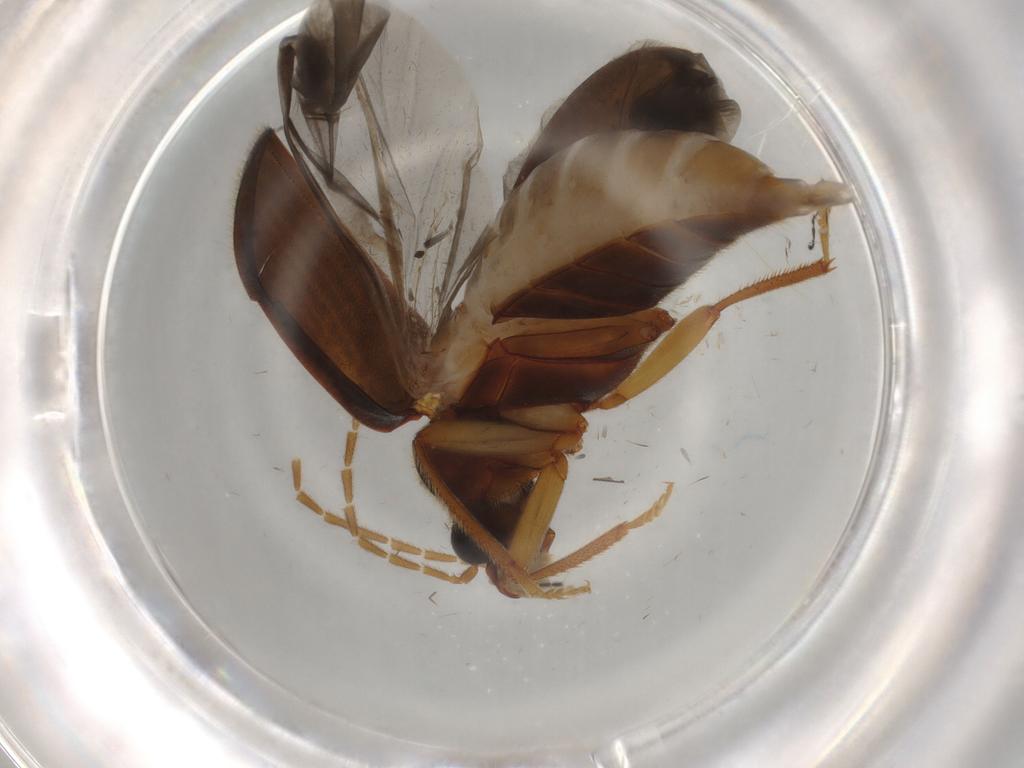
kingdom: Animalia
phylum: Arthropoda
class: Insecta
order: Coleoptera
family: Ptilodactylidae
